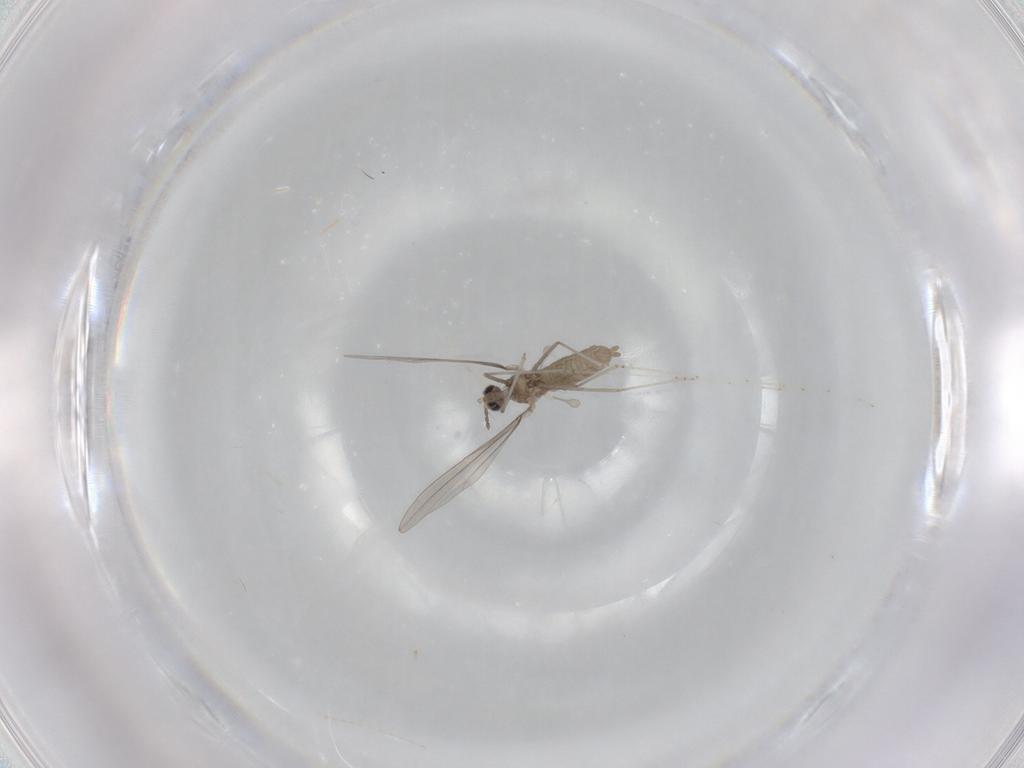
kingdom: Animalia
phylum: Arthropoda
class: Insecta
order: Diptera
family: Phoridae
